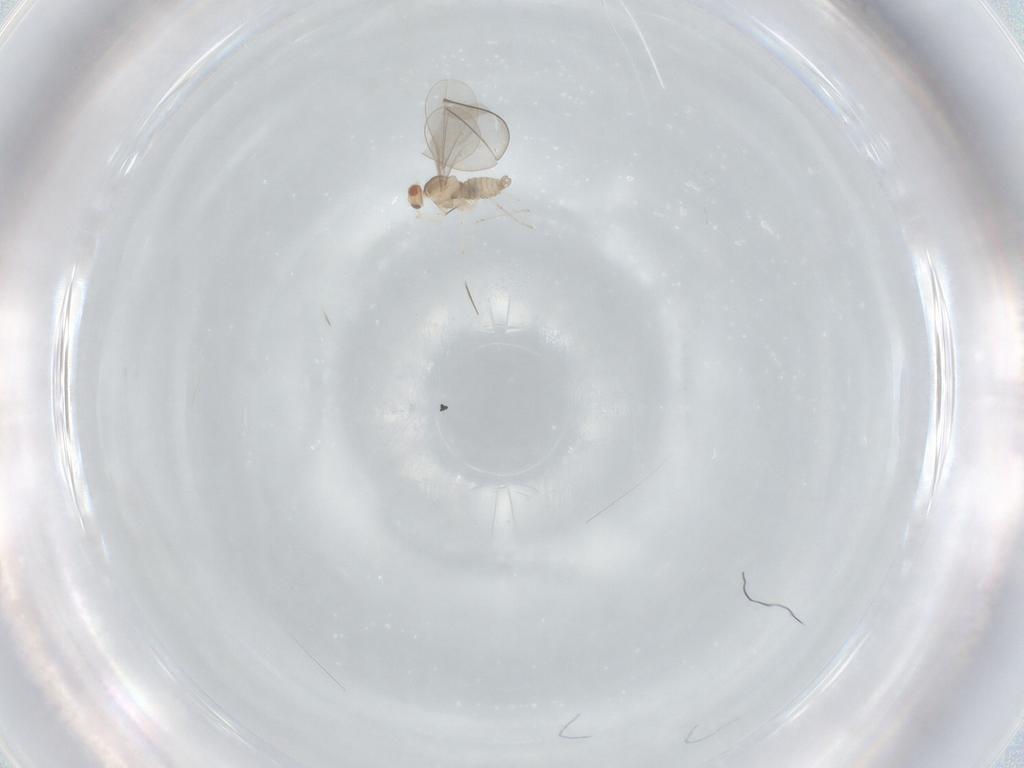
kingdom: Animalia
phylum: Arthropoda
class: Insecta
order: Diptera
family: Cecidomyiidae
